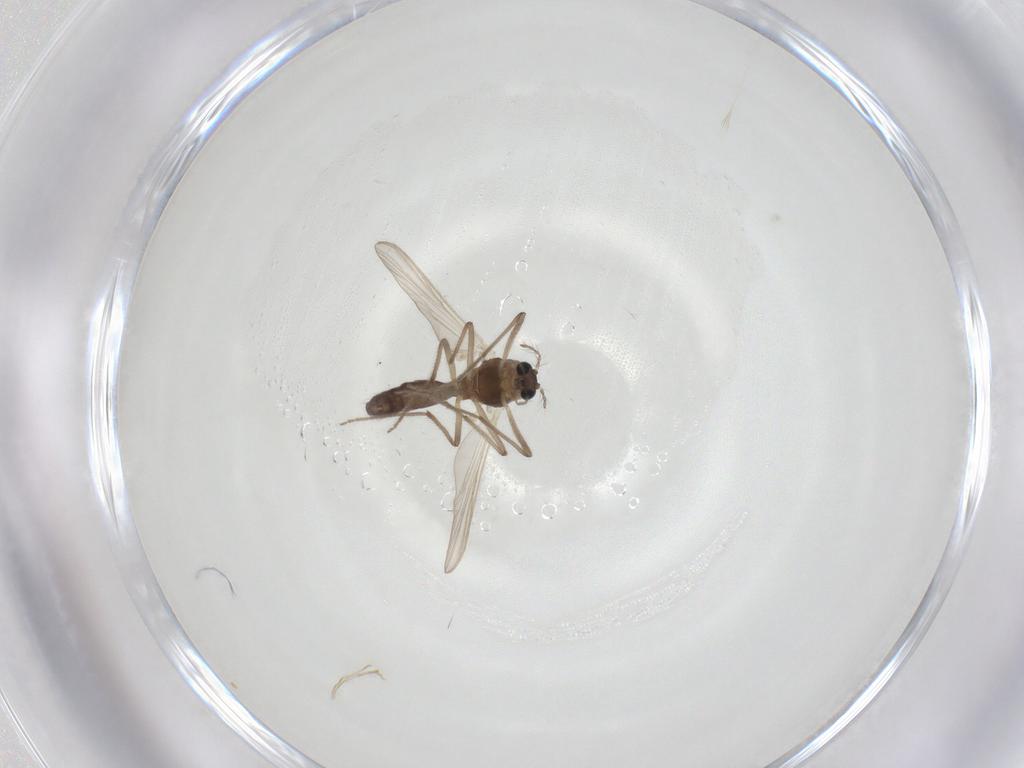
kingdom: Animalia
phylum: Arthropoda
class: Insecta
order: Diptera
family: Chironomidae
